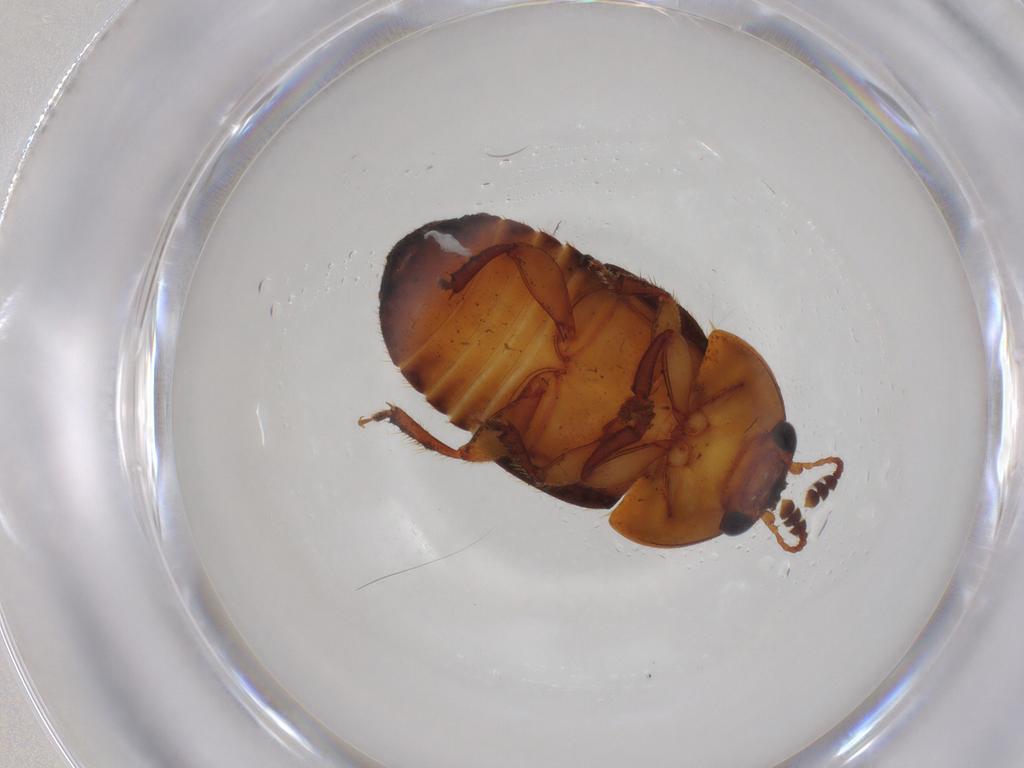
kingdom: Animalia
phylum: Arthropoda
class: Insecta
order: Coleoptera
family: Nitidulidae
